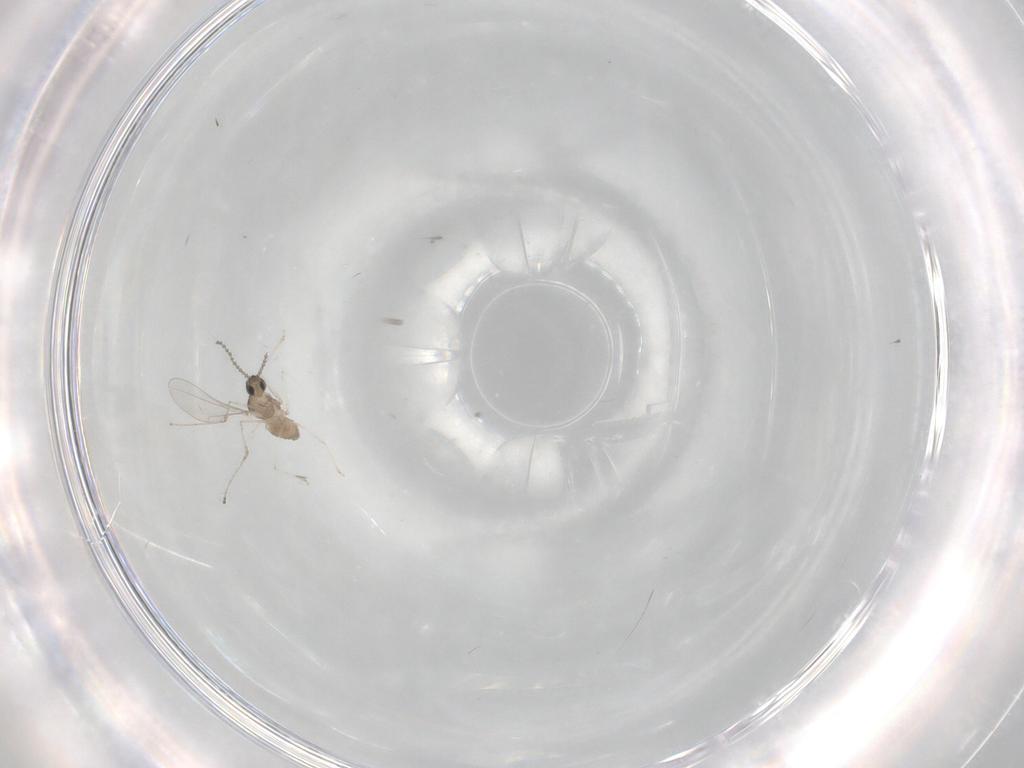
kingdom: Animalia
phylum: Arthropoda
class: Insecta
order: Diptera
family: Cecidomyiidae
